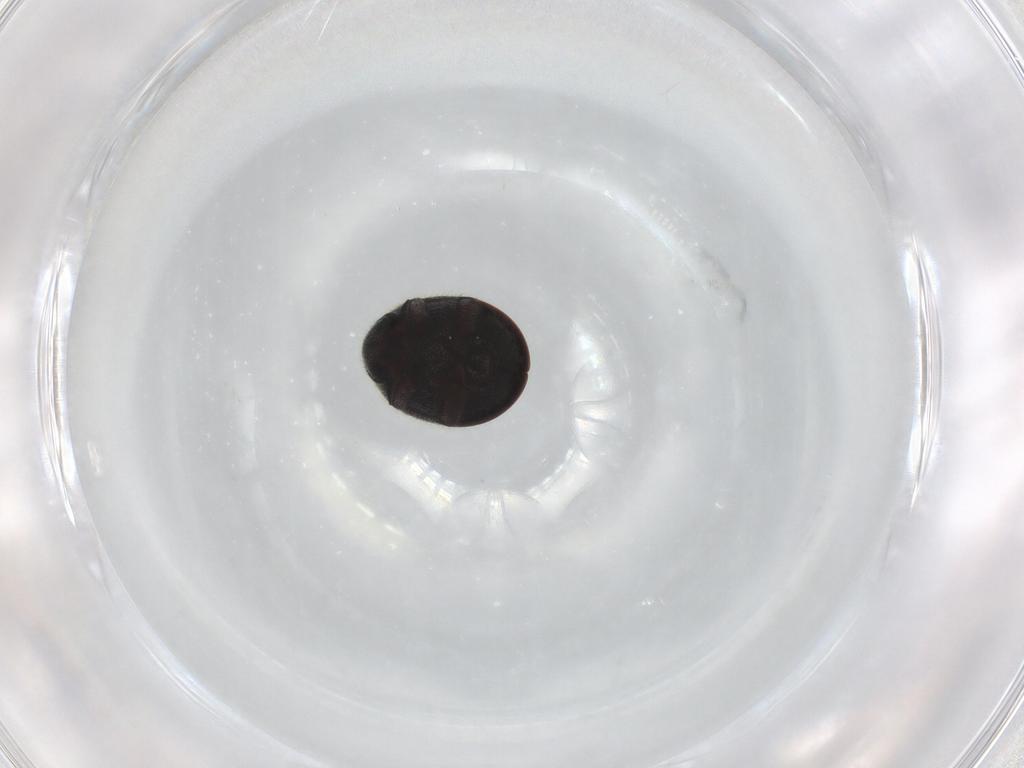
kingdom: Animalia
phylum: Arthropoda
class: Insecta
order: Coleoptera
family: Ptinidae
